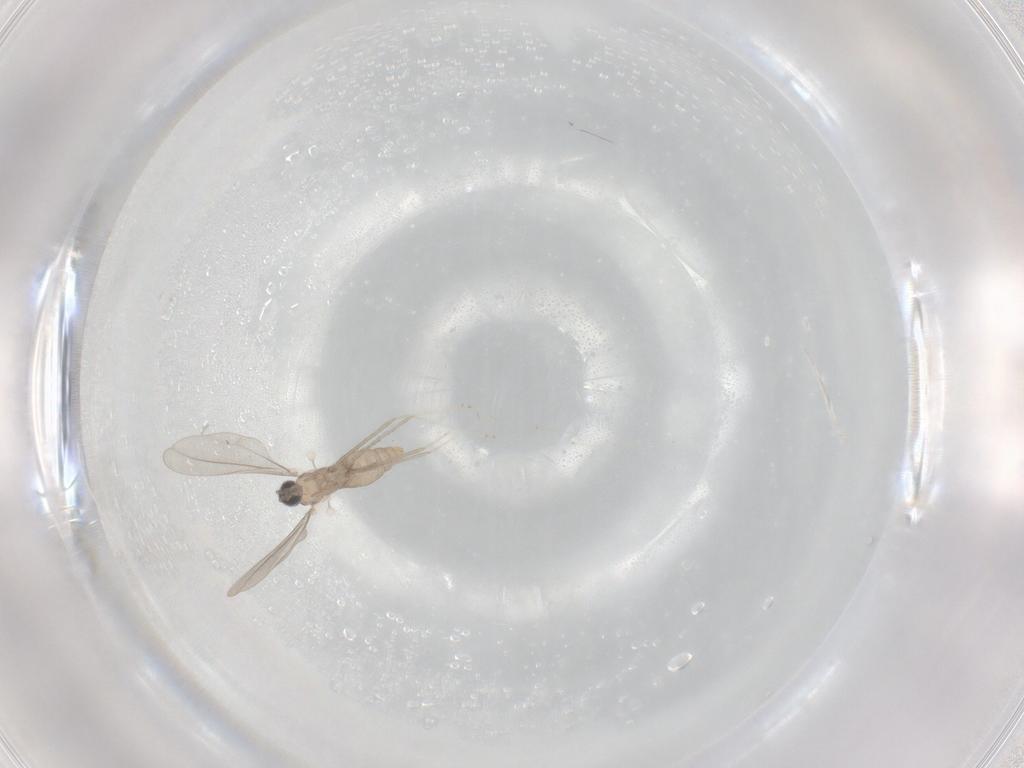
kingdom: Animalia
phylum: Arthropoda
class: Insecta
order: Diptera
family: Cecidomyiidae
